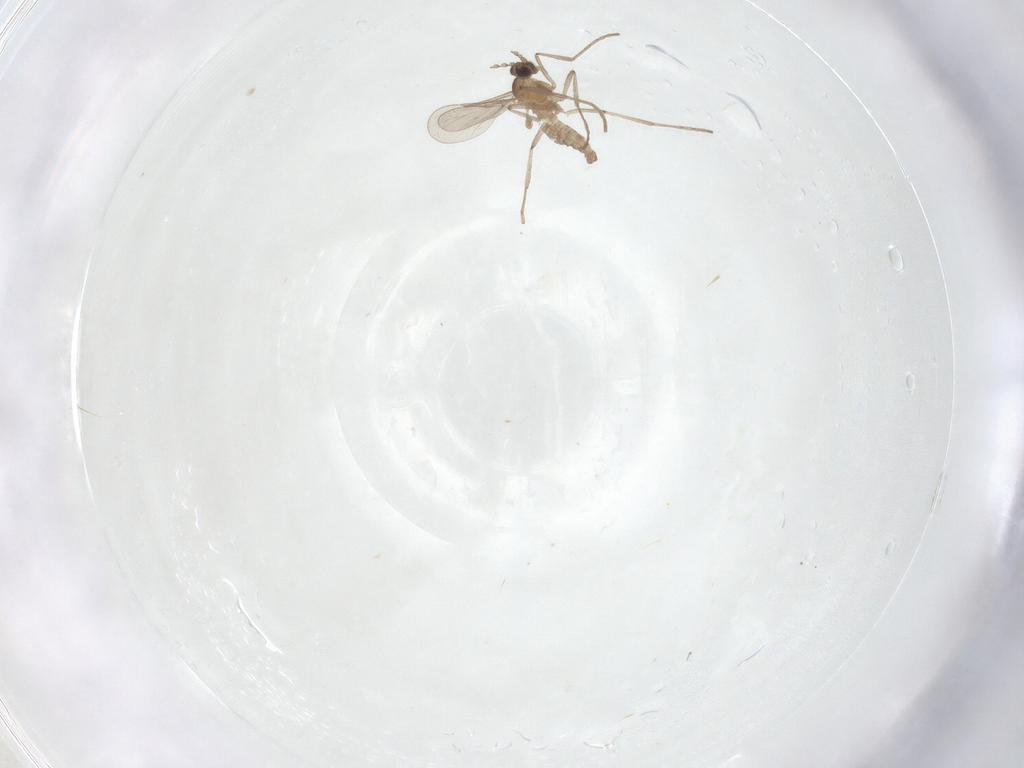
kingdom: Animalia
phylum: Arthropoda
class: Insecta
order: Diptera
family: Cecidomyiidae
